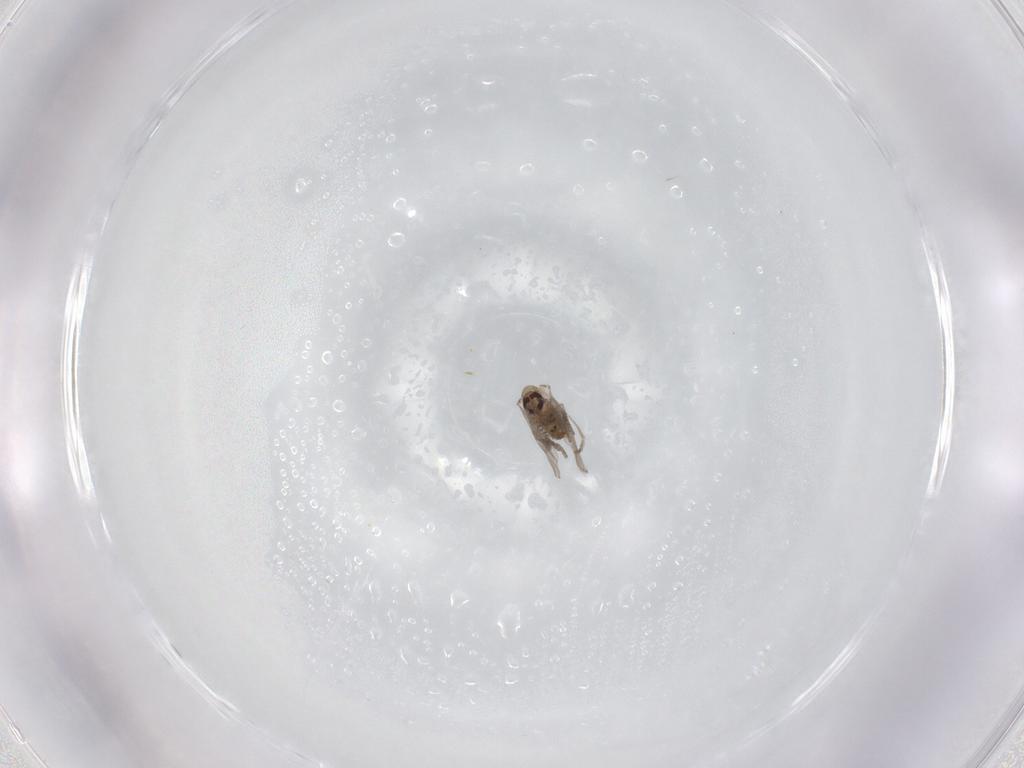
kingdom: Animalia
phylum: Arthropoda
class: Insecta
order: Diptera
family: Psychodidae
